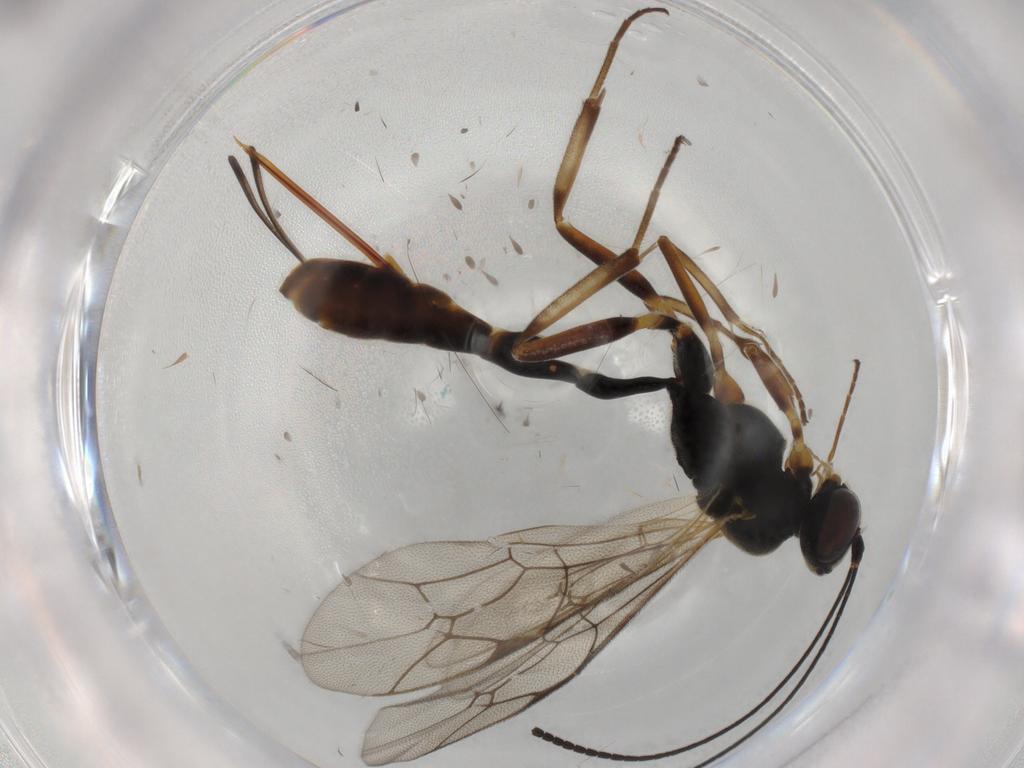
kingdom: Animalia
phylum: Arthropoda
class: Insecta
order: Hymenoptera
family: Ichneumonidae
